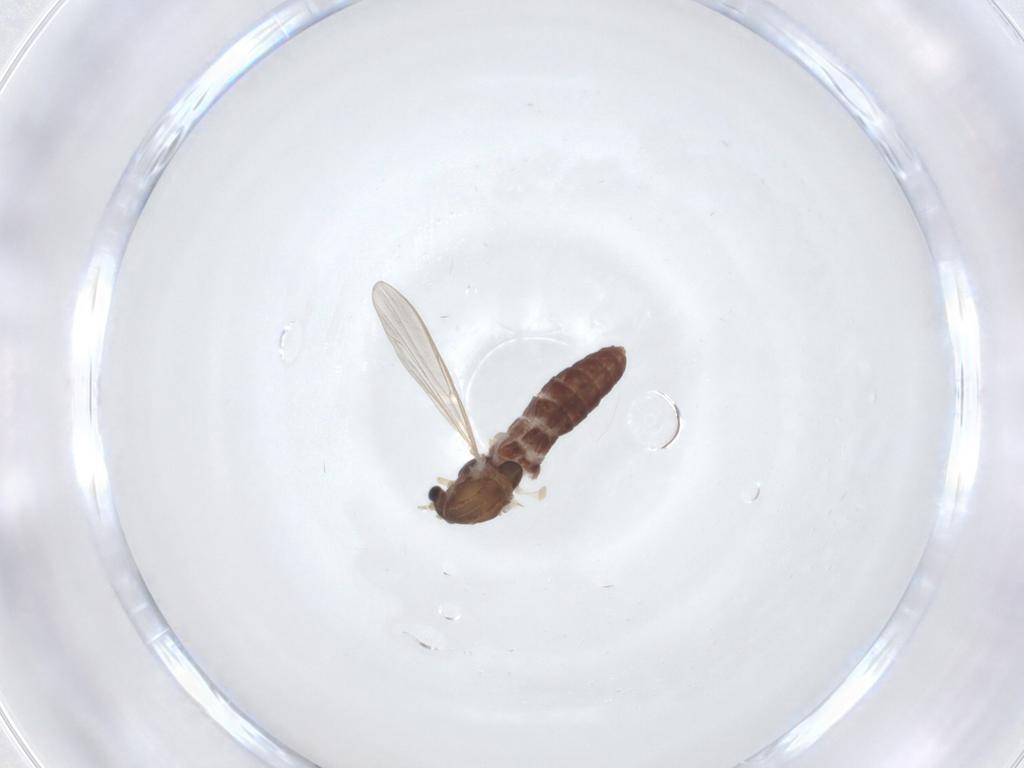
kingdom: Animalia
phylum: Arthropoda
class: Insecta
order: Diptera
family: Chironomidae
